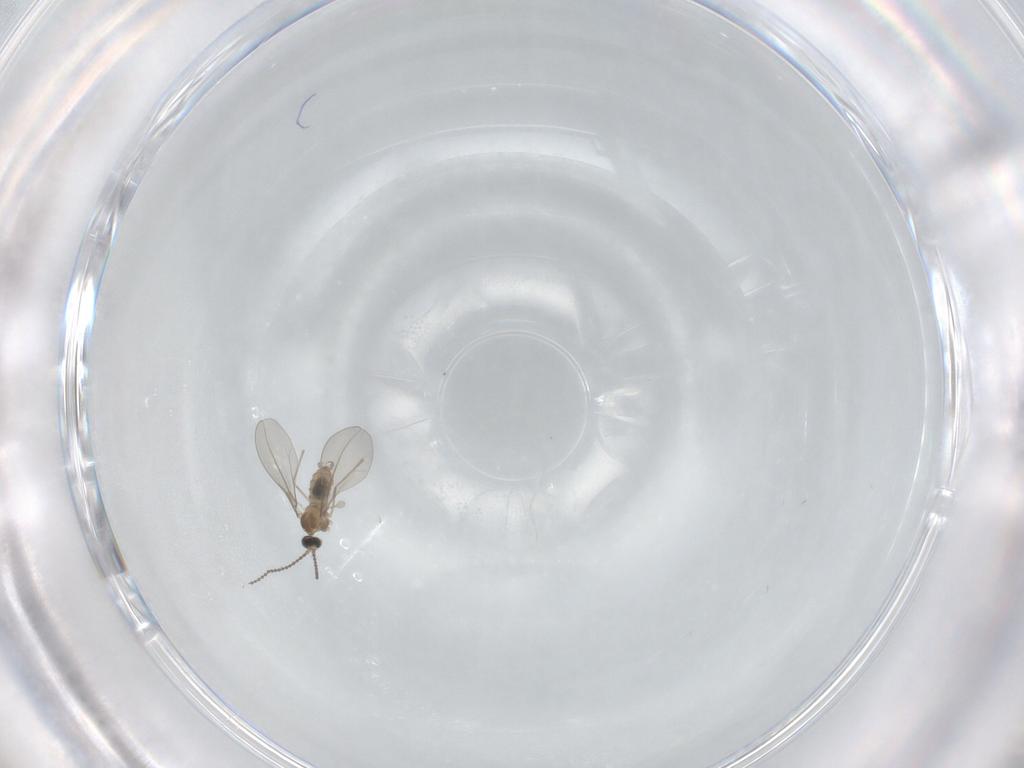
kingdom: Animalia
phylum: Arthropoda
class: Insecta
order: Diptera
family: Cecidomyiidae
